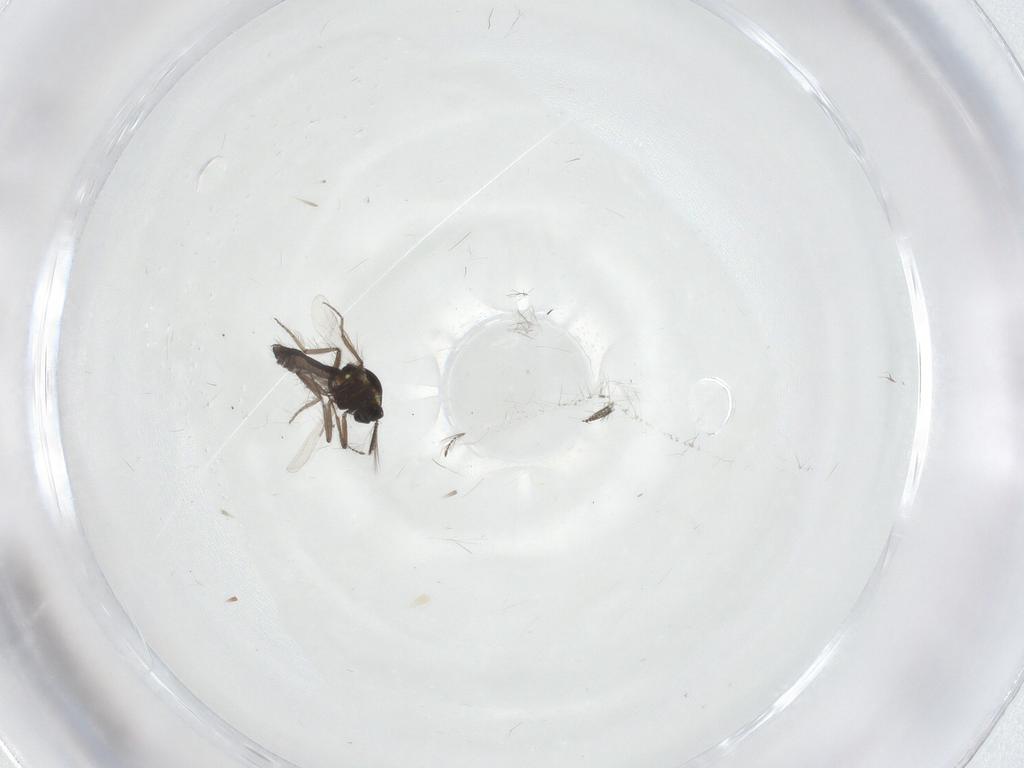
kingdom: Animalia
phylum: Arthropoda
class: Insecta
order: Diptera
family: Ceratopogonidae
